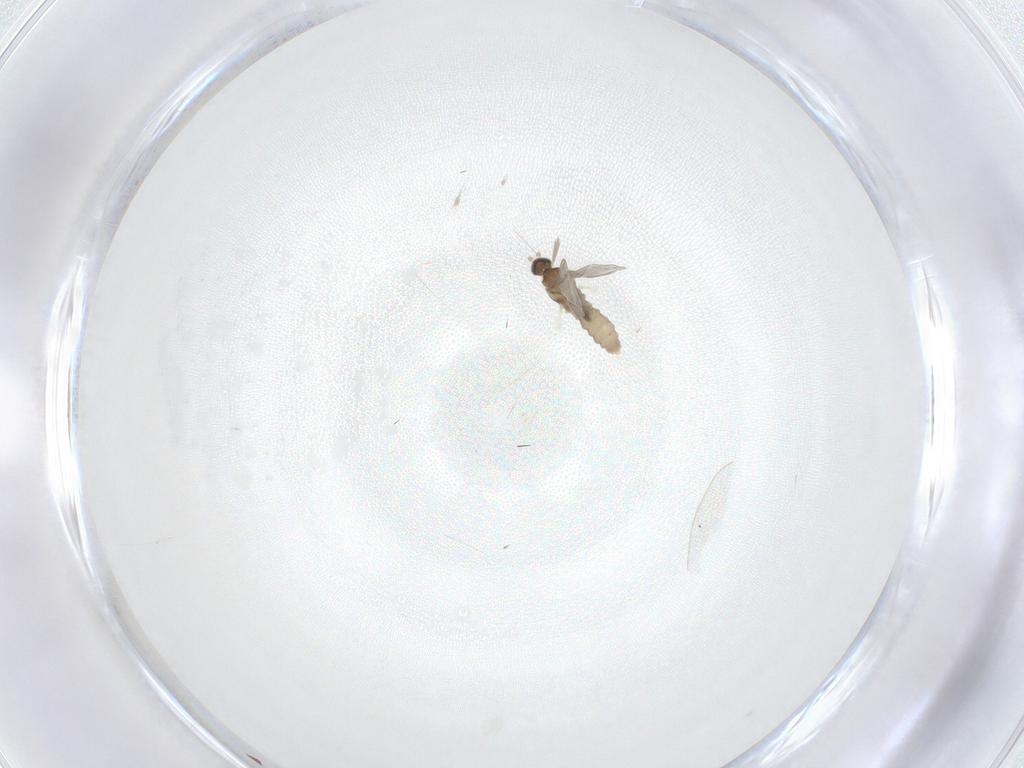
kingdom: Animalia
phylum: Arthropoda
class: Insecta
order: Diptera
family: Cecidomyiidae
